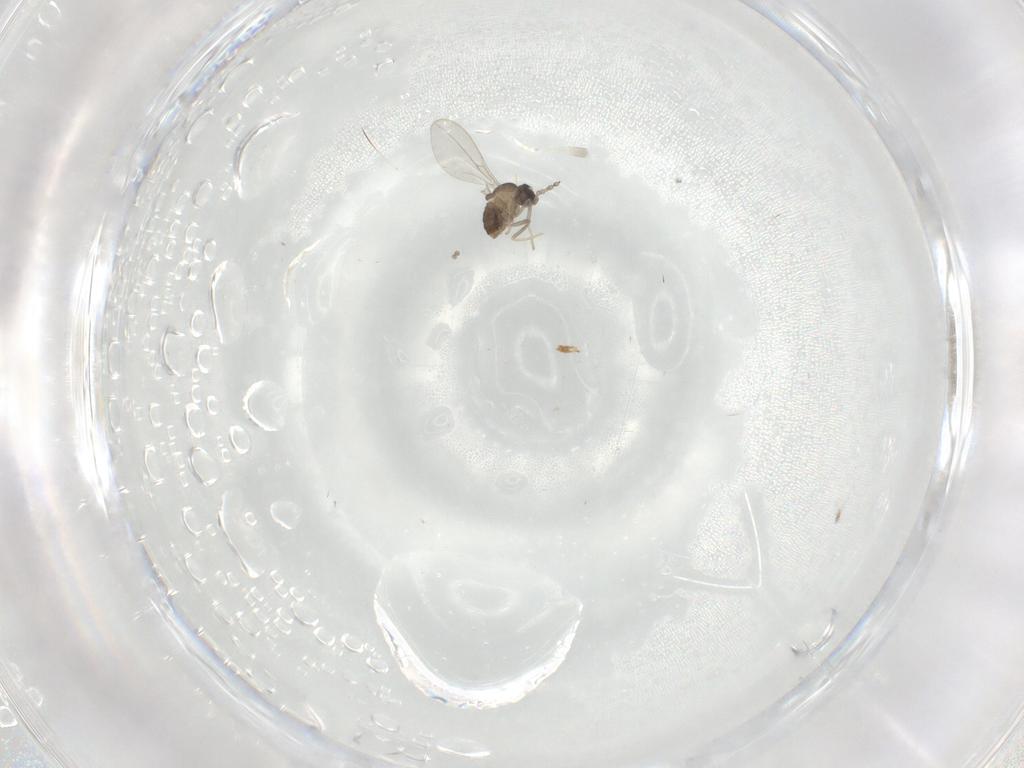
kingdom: Animalia
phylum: Arthropoda
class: Insecta
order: Diptera
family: Cecidomyiidae
